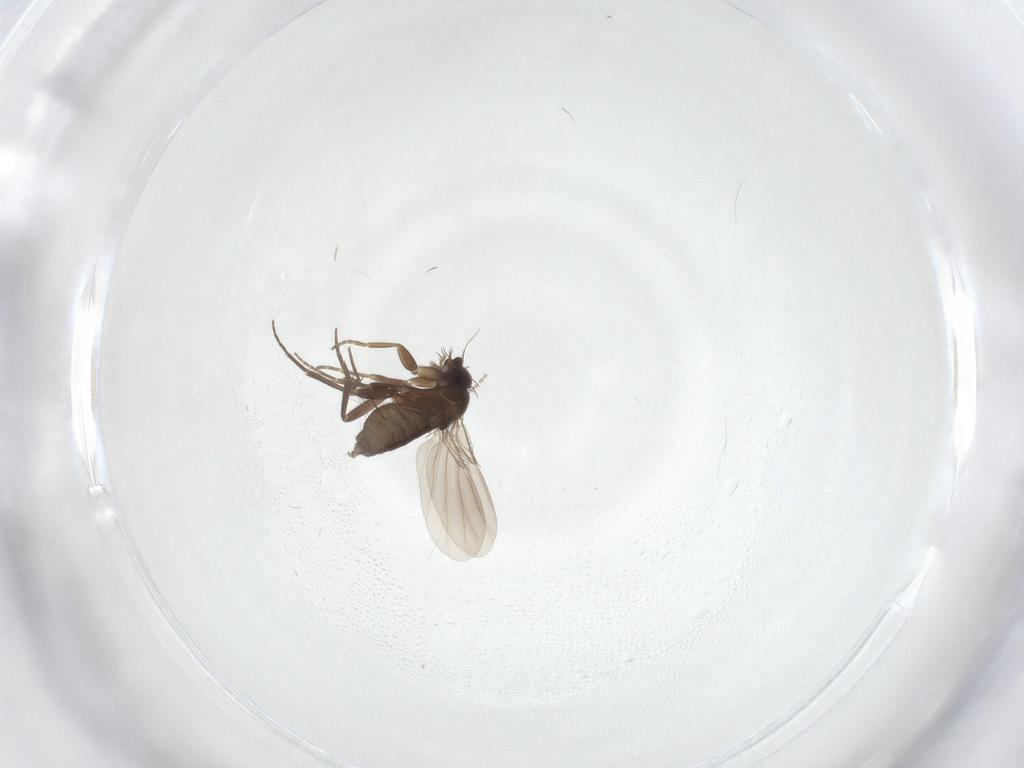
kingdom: Animalia
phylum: Arthropoda
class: Insecta
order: Diptera
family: Phoridae
